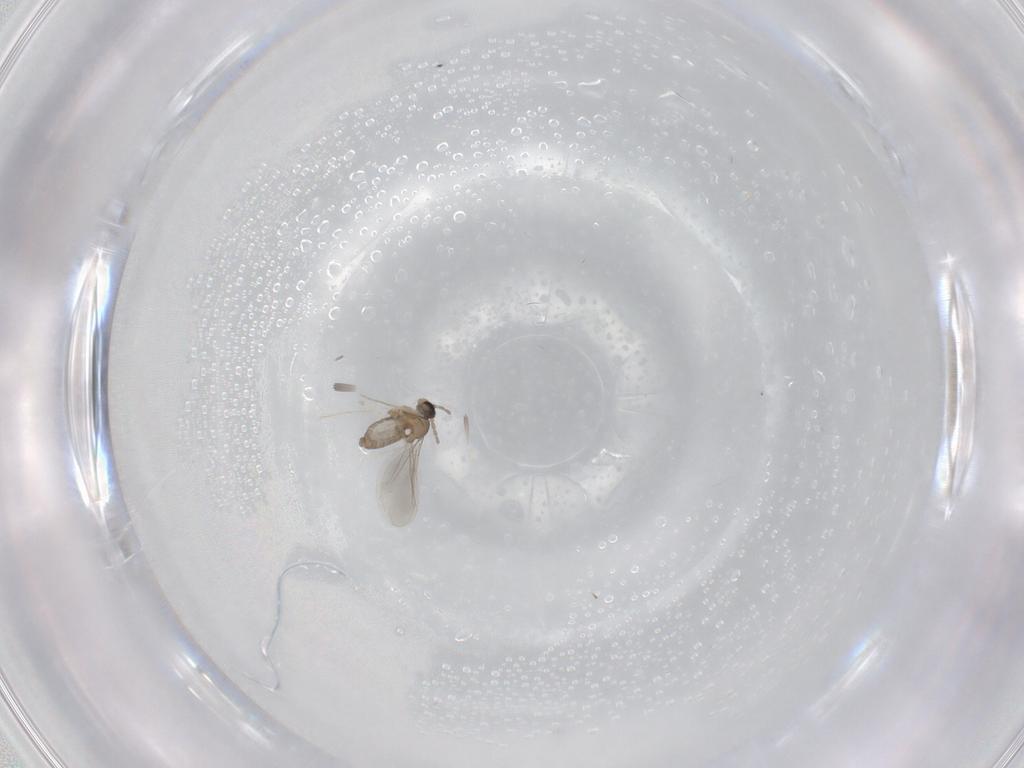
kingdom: Animalia
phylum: Arthropoda
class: Insecta
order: Diptera
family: Cecidomyiidae
